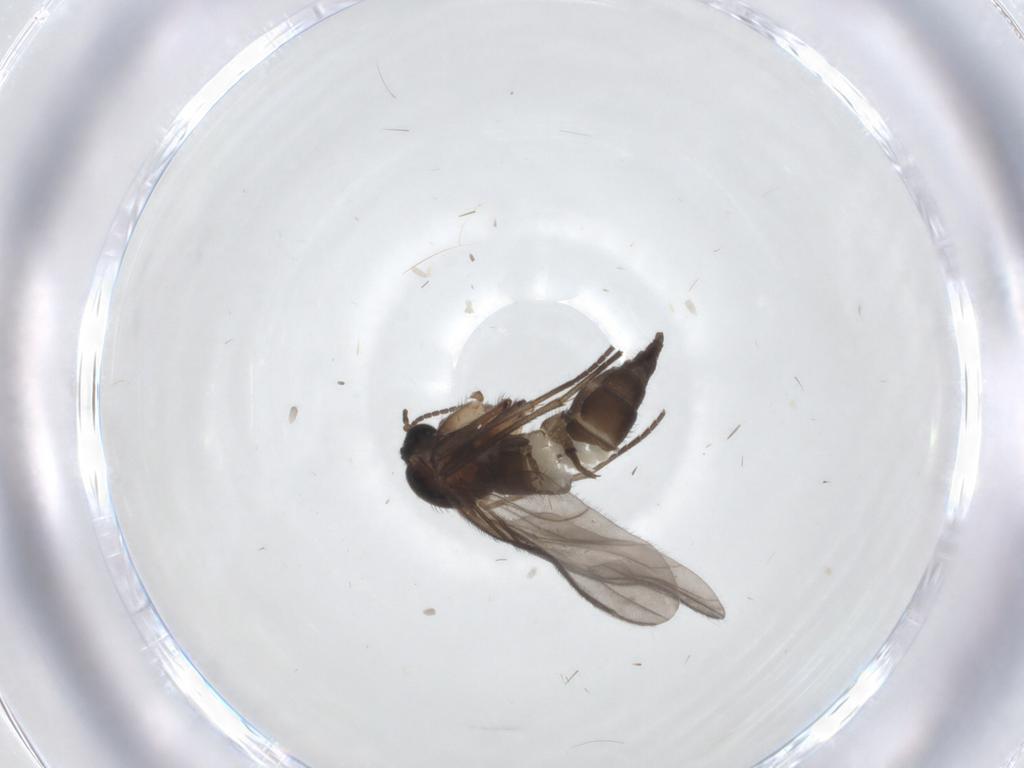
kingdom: Animalia
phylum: Arthropoda
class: Insecta
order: Diptera
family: Sciaridae
